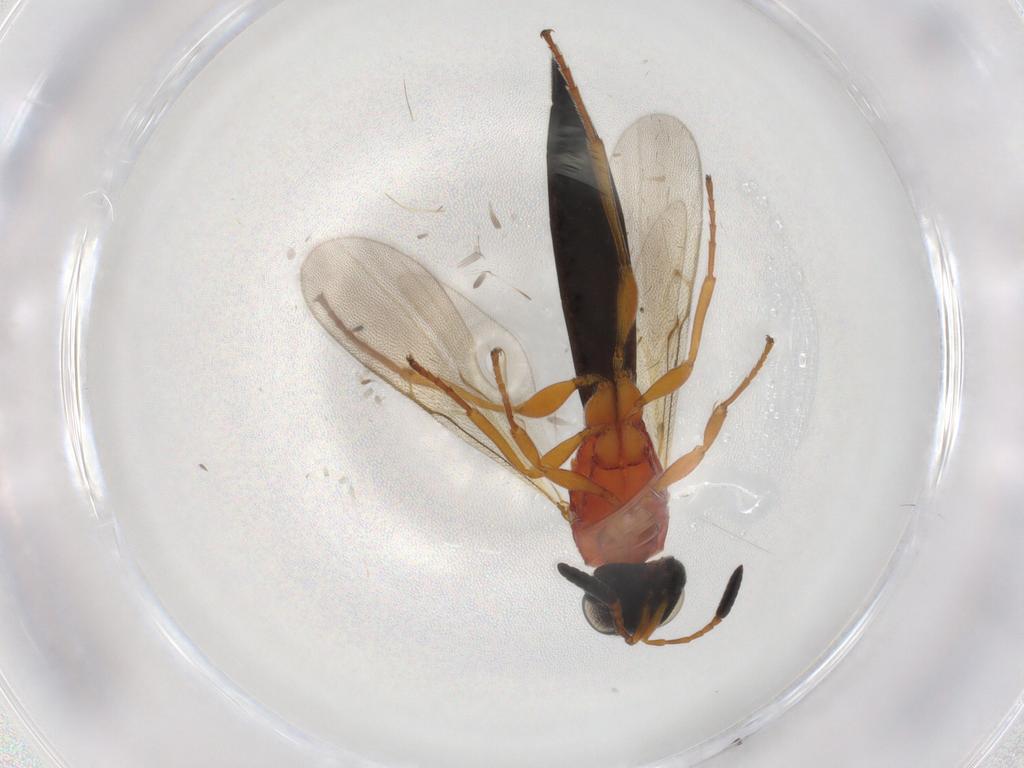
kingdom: Animalia
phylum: Arthropoda
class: Insecta
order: Hymenoptera
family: Scelionidae
